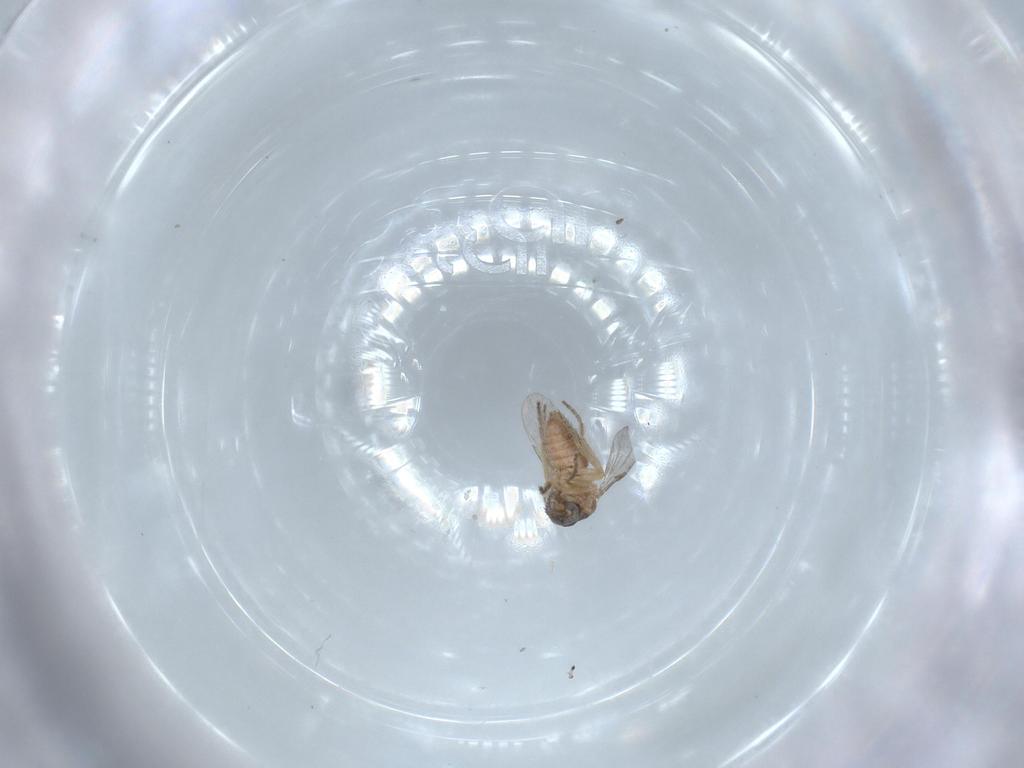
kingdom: Animalia
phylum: Arthropoda
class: Insecta
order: Diptera
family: Ceratopogonidae
